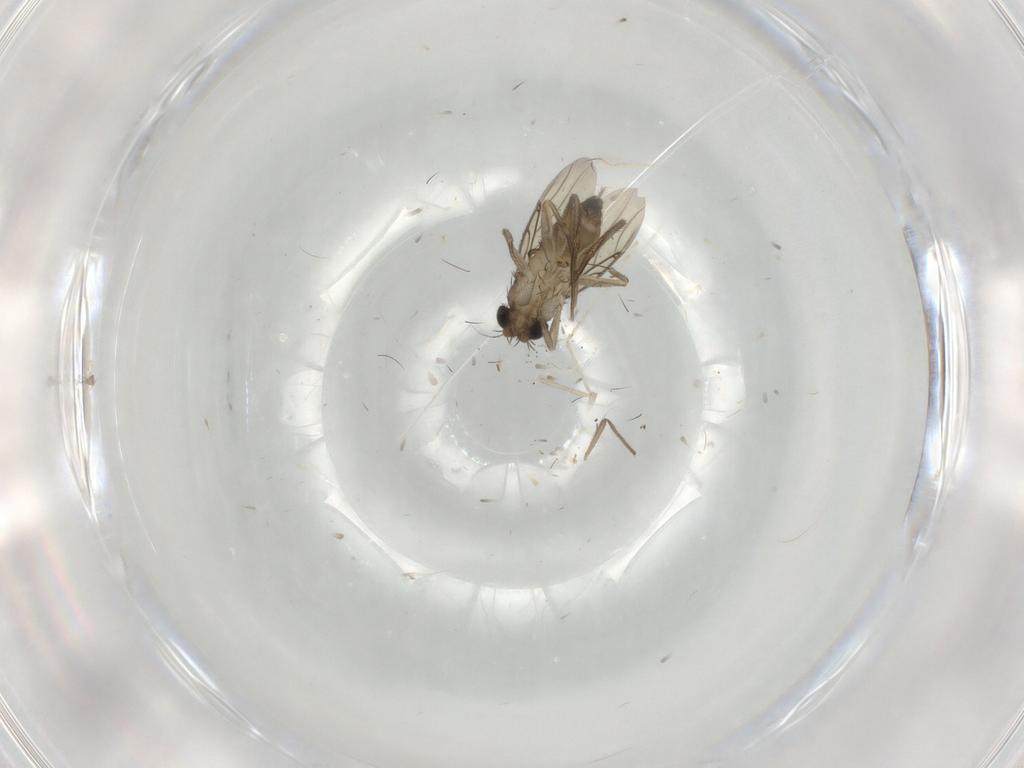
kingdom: Animalia
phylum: Arthropoda
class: Insecta
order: Diptera
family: Phoridae
